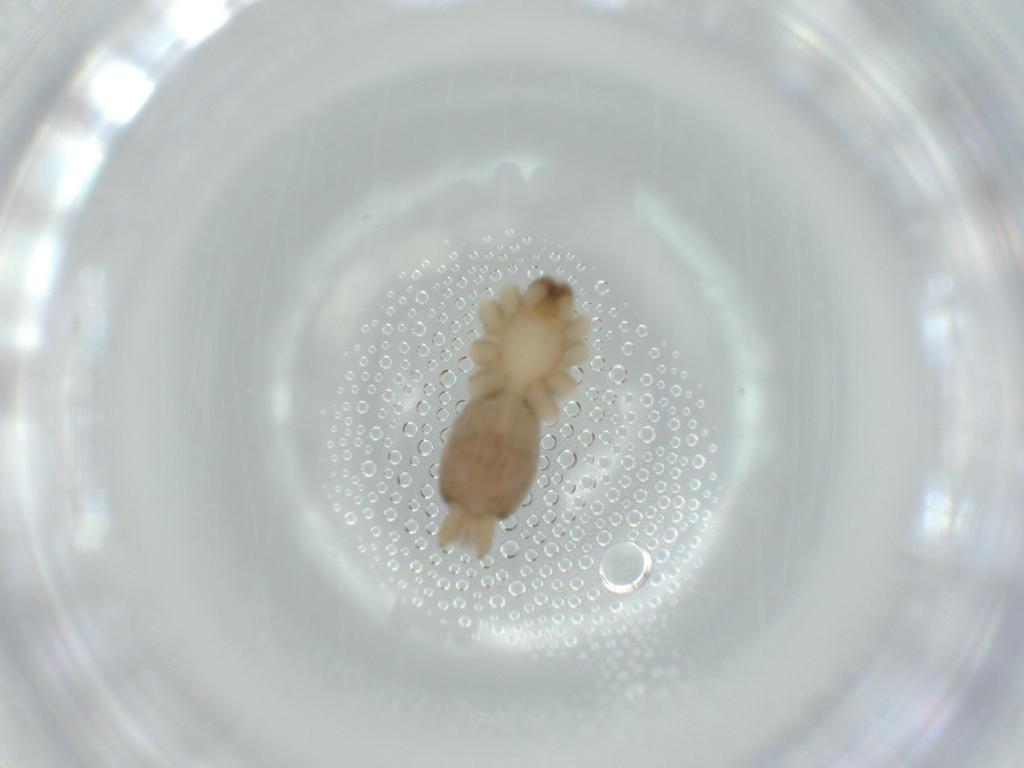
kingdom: Animalia
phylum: Arthropoda
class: Arachnida
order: Araneae
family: Gnaphosidae
